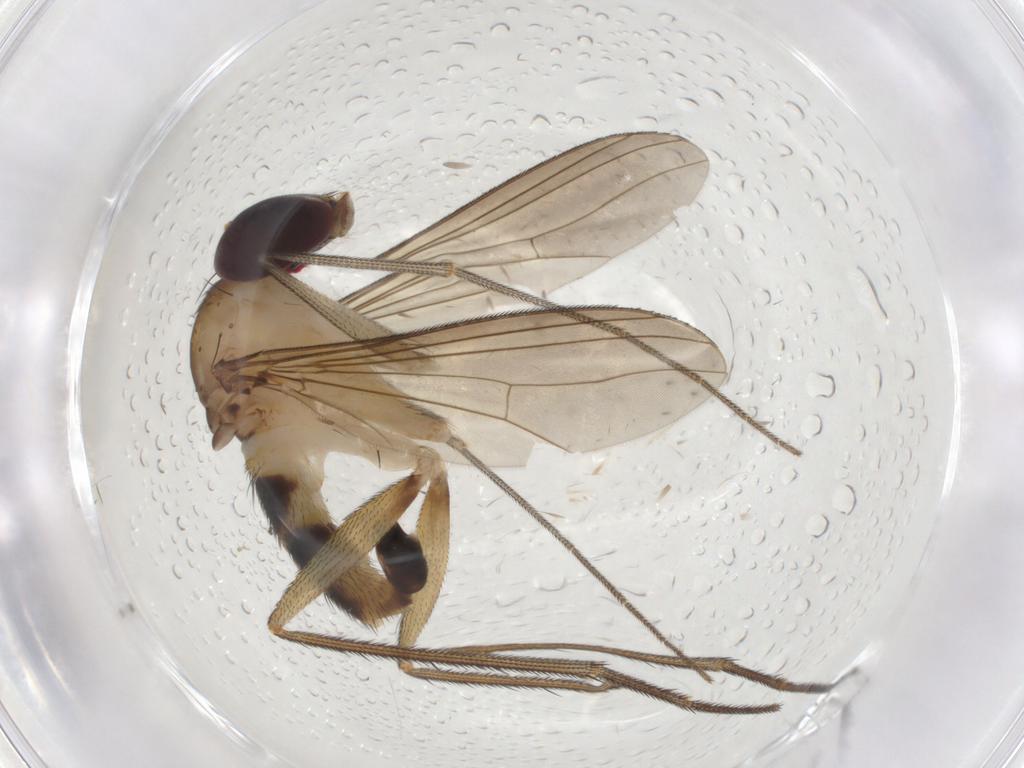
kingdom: Animalia
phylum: Arthropoda
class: Insecta
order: Diptera
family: Dolichopodidae
